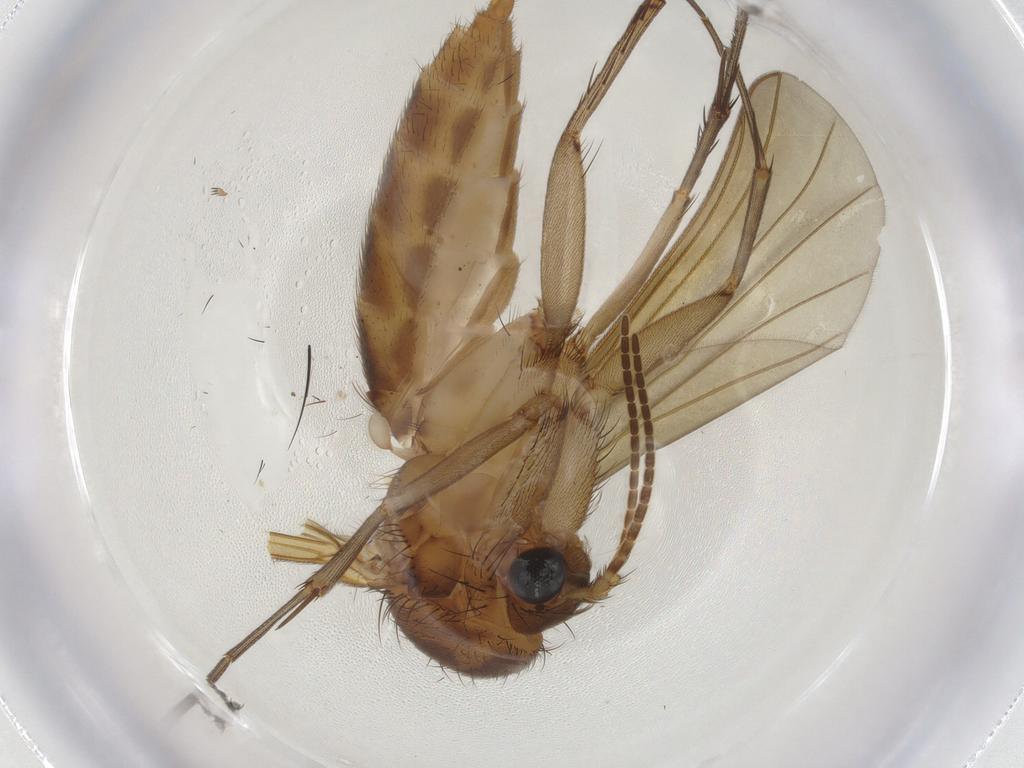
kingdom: Animalia
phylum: Arthropoda
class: Insecta
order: Diptera
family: Mycetophilidae
